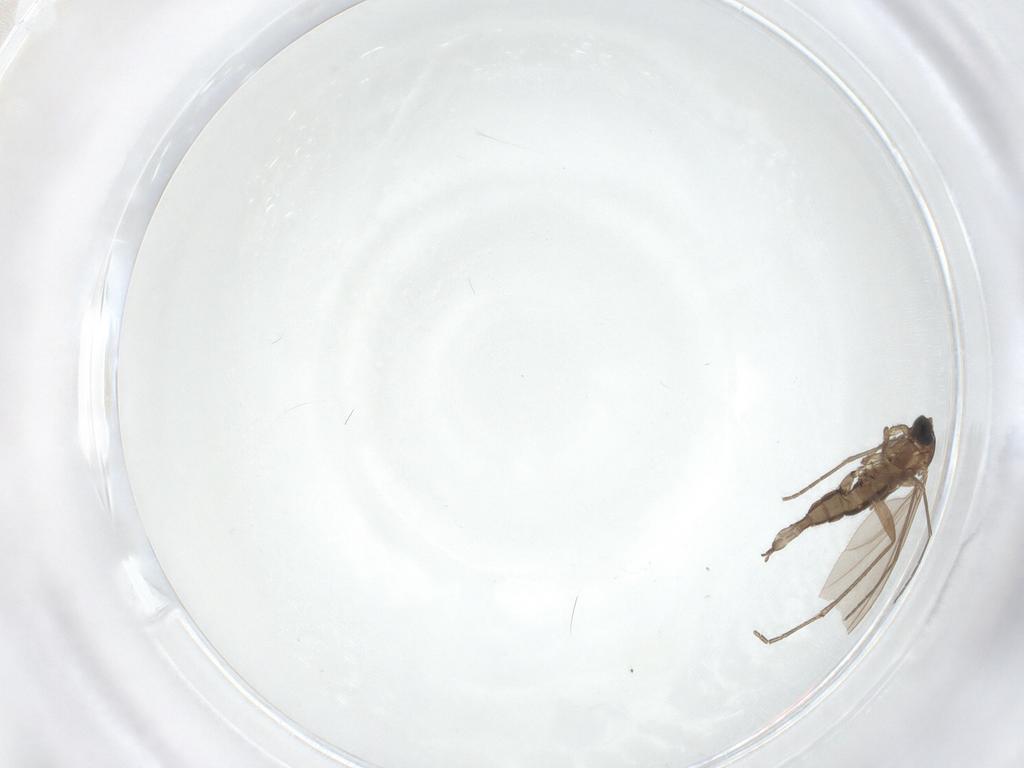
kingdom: Animalia
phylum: Arthropoda
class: Insecta
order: Diptera
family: Sciaridae
